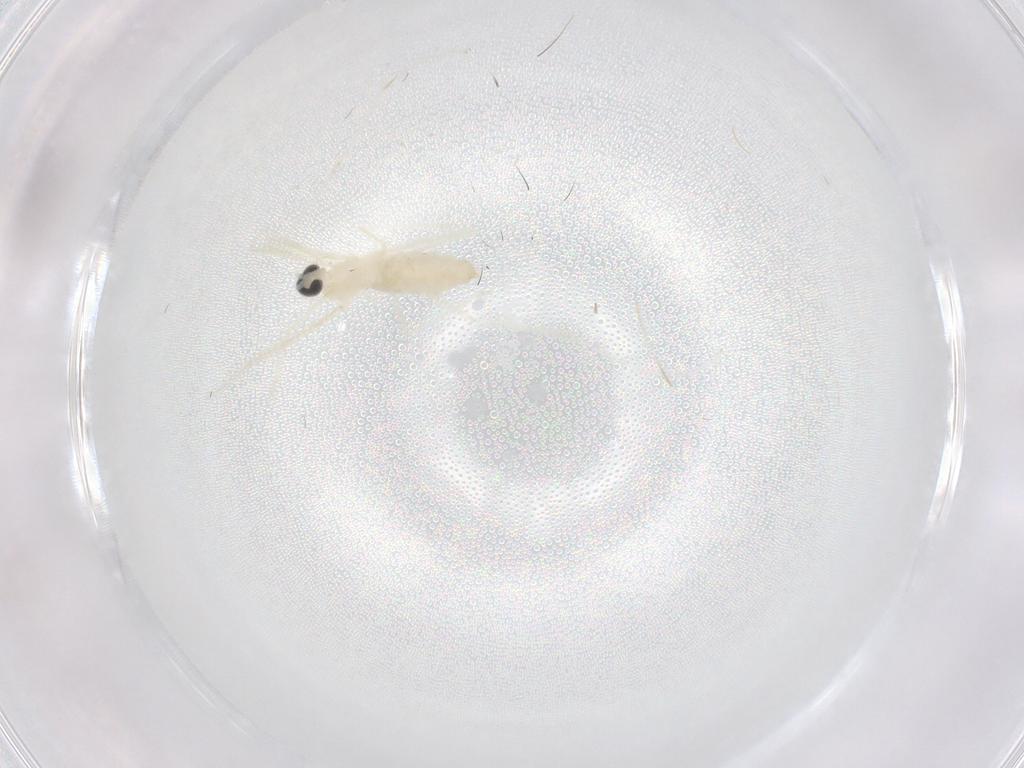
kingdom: Animalia
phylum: Arthropoda
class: Insecta
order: Diptera
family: Cecidomyiidae
